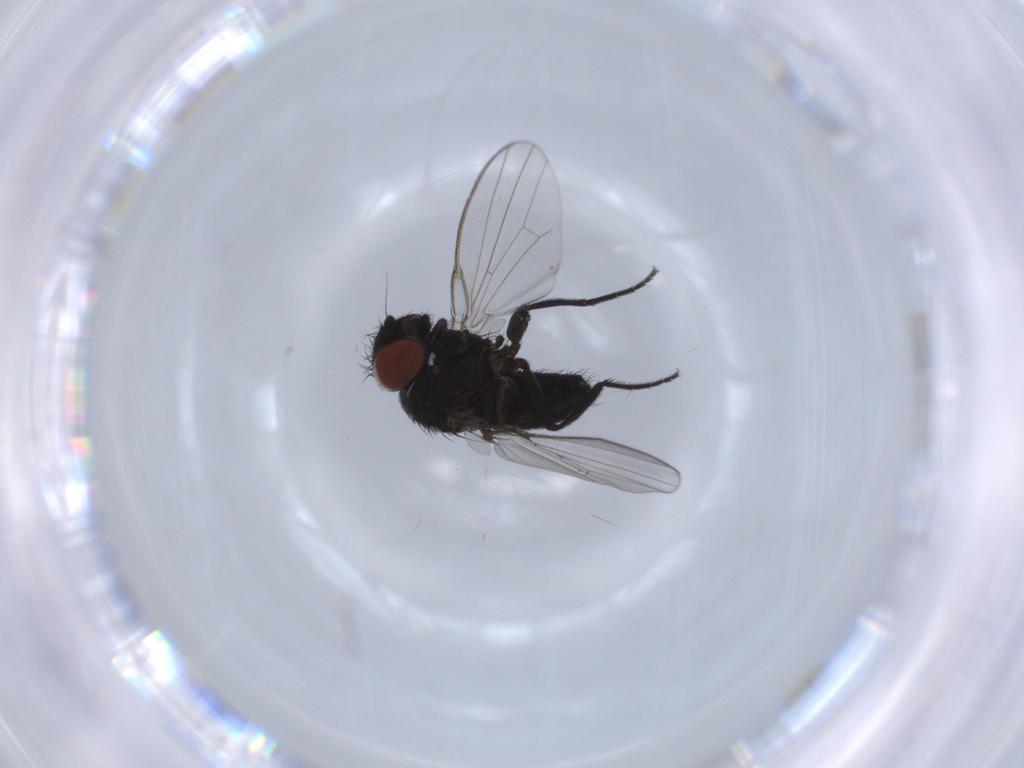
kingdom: Animalia
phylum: Arthropoda
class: Insecta
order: Diptera
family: Milichiidae
